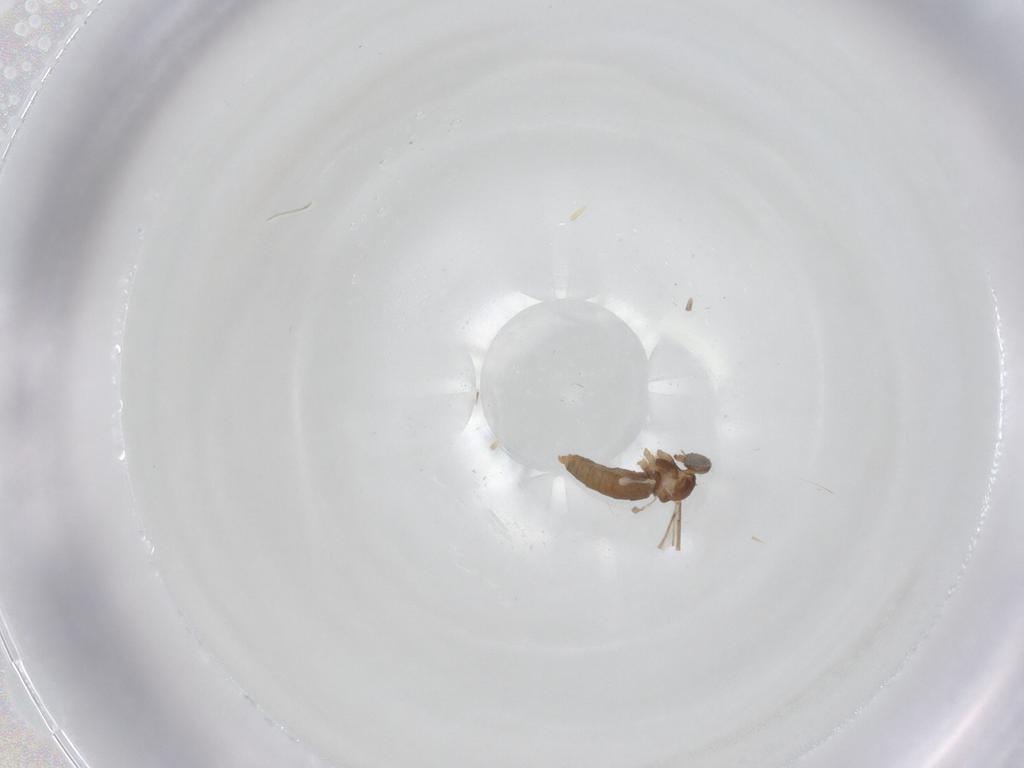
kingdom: Animalia
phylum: Arthropoda
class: Insecta
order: Diptera
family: Cecidomyiidae
